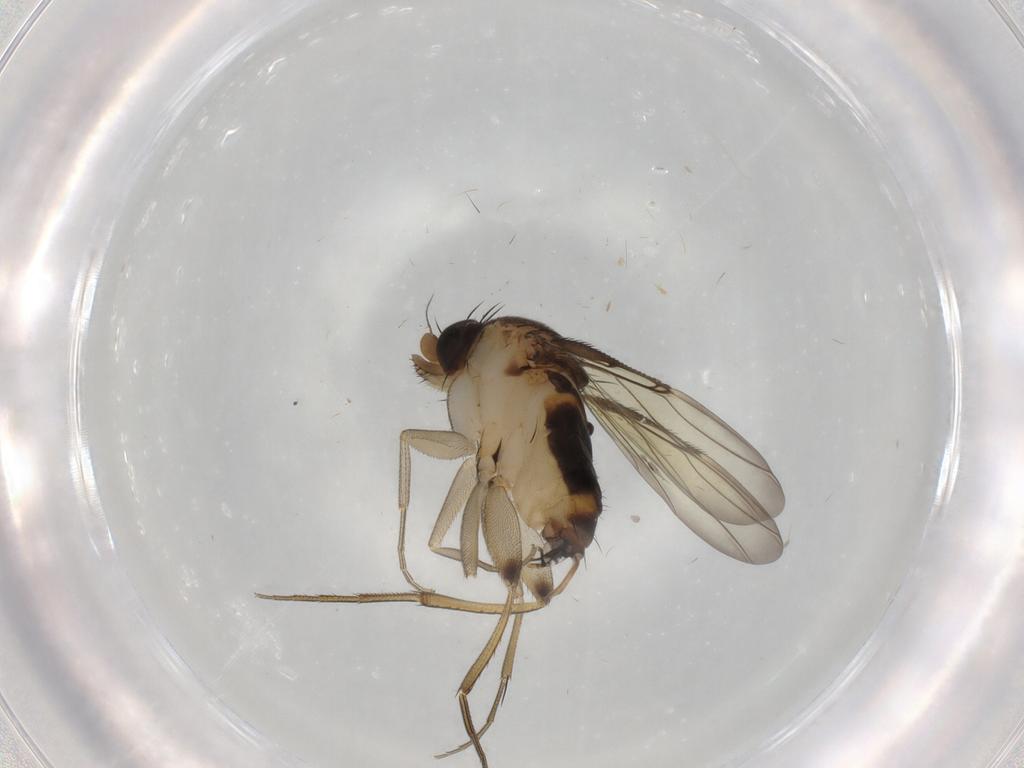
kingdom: Animalia
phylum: Arthropoda
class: Insecta
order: Diptera
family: Phoridae
